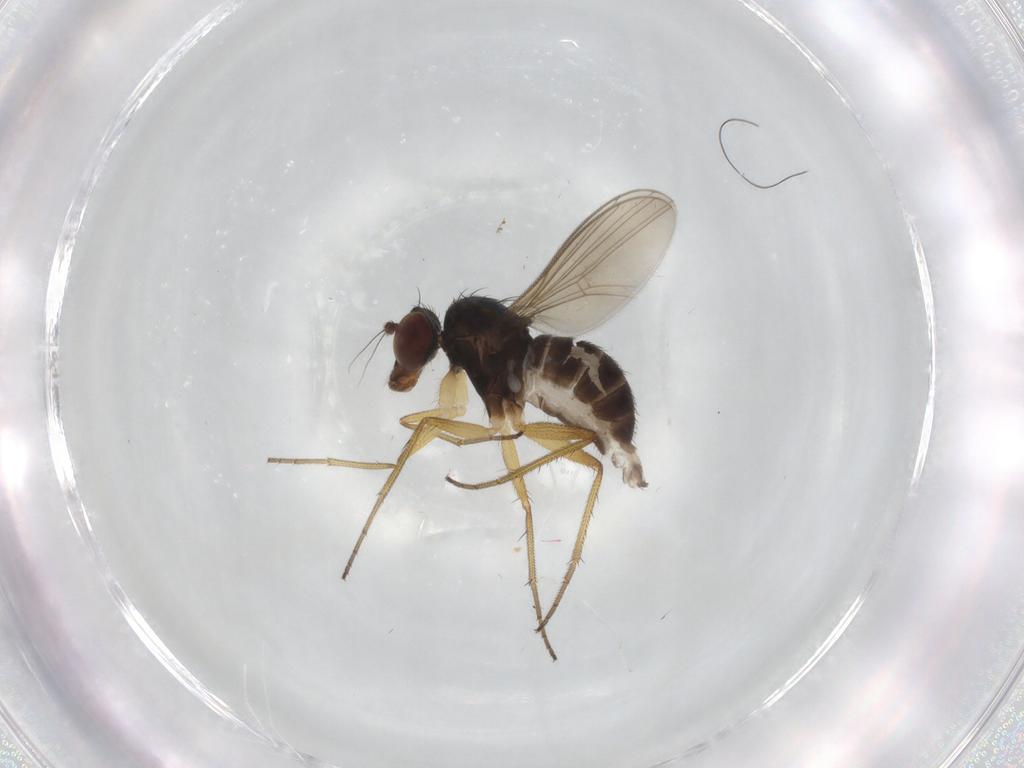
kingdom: Animalia
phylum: Arthropoda
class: Insecta
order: Diptera
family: Dolichopodidae
